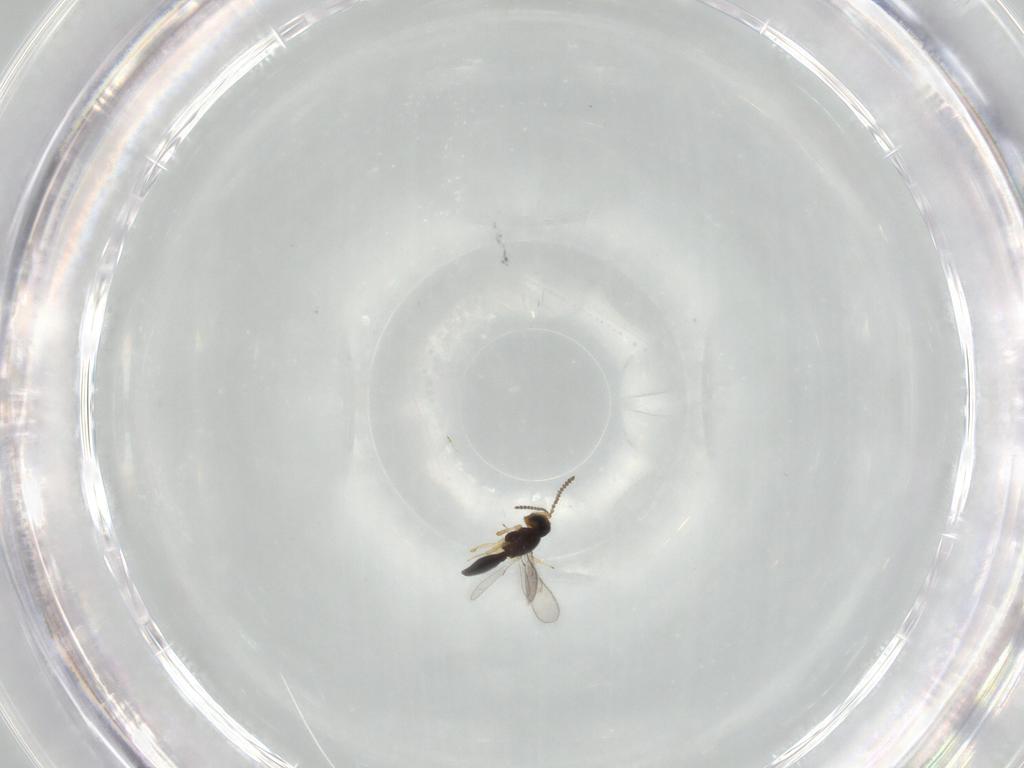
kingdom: Animalia
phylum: Arthropoda
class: Insecta
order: Hymenoptera
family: Scelionidae
